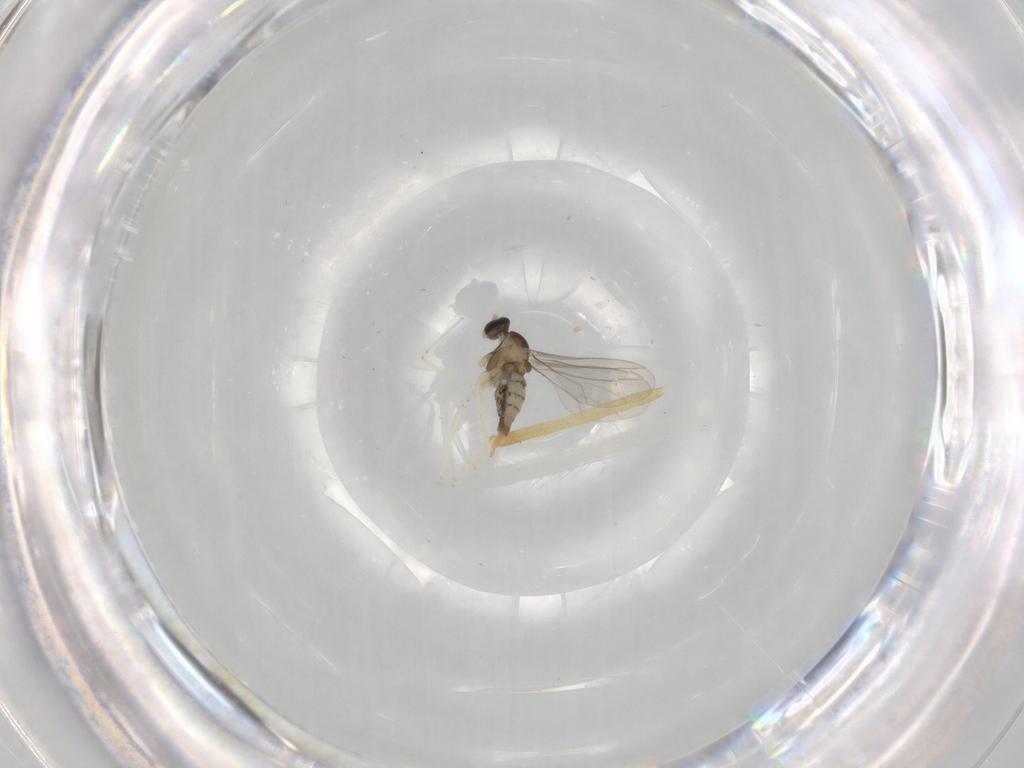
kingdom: Animalia
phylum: Arthropoda
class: Insecta
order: Diptera
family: Cecidomyiidae
